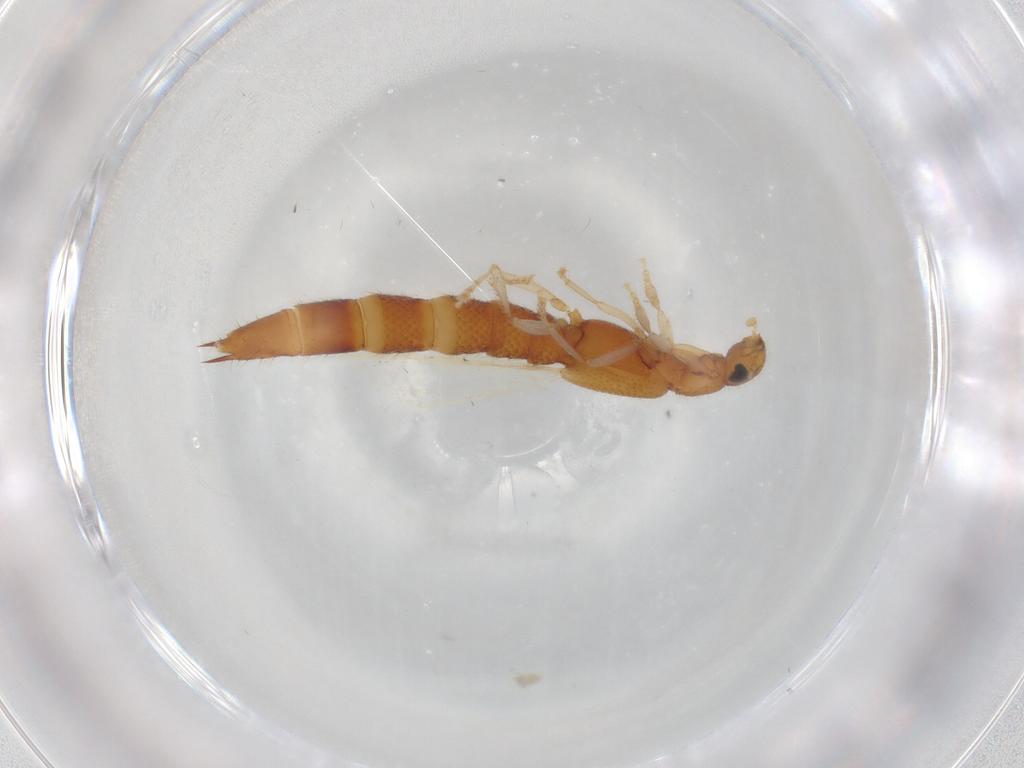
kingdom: Animalia
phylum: Arthropoda
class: Insecta
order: Coleoptera
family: Staphylinidae
